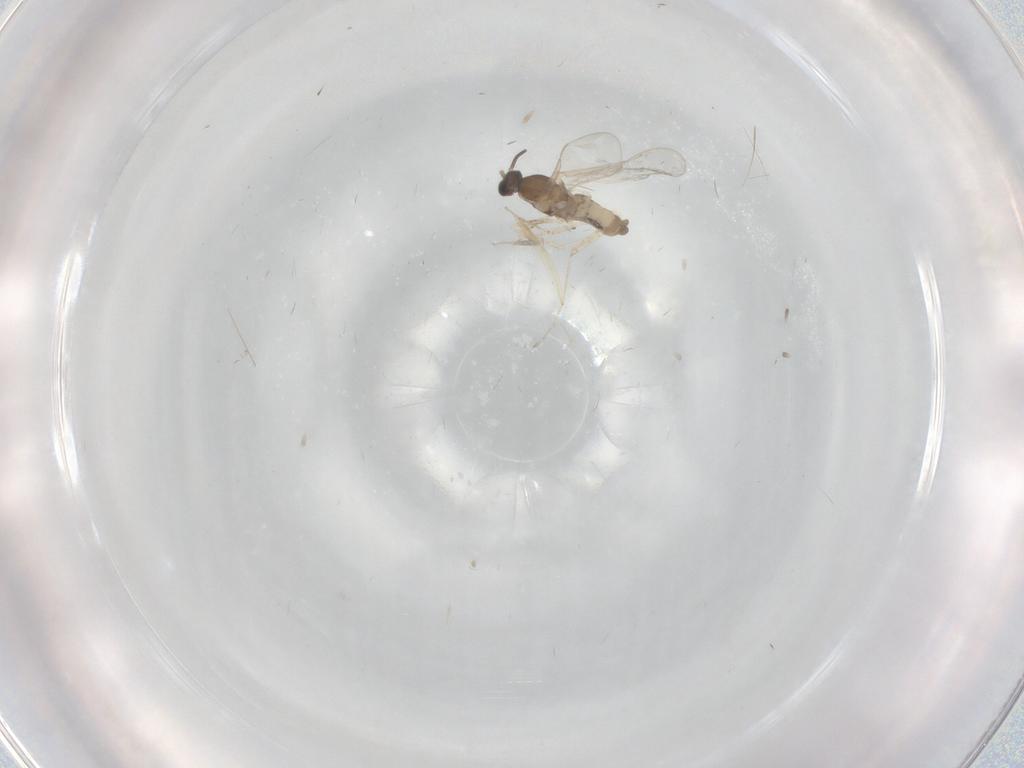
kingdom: Animalia
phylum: Arthropoda
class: Insecta
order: Diptera
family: Cecidomyiidae
